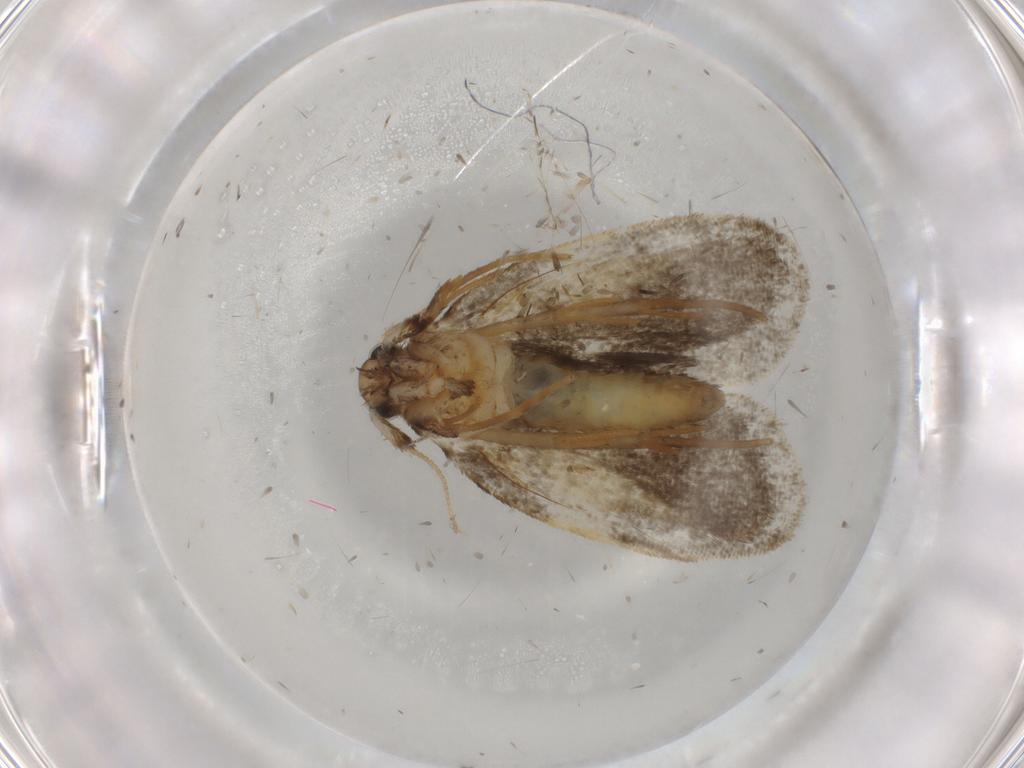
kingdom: Animalia
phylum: Arthropoda
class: Insecta
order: Lepidoptera
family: Psychidae
